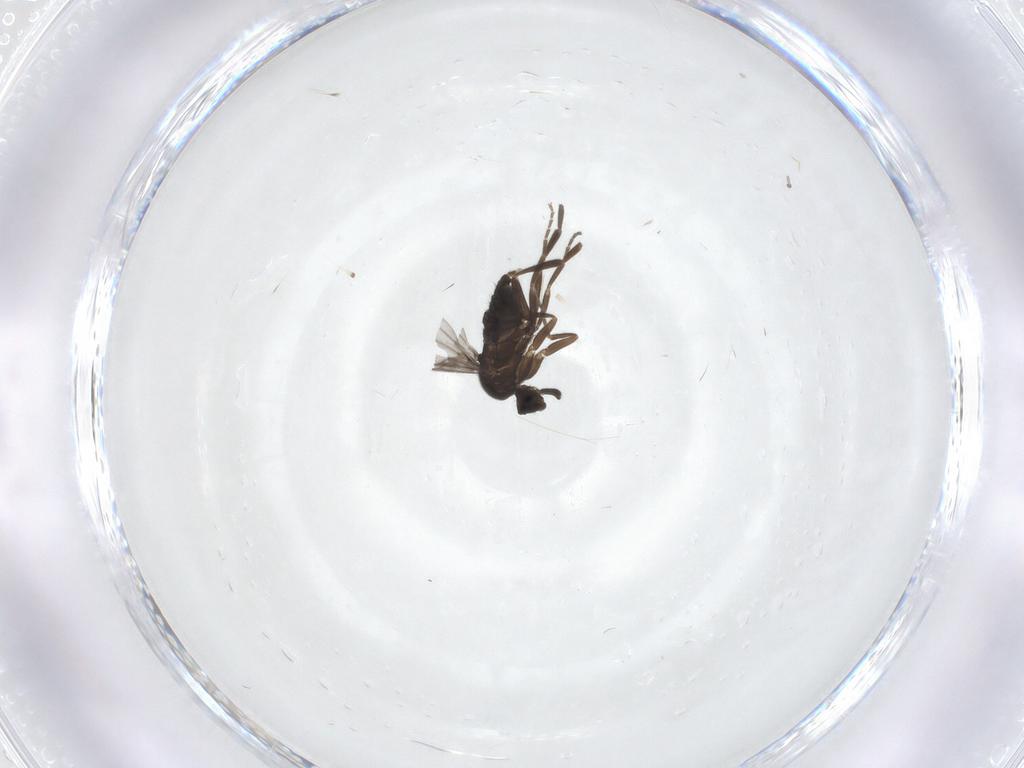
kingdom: Animalia
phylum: Arthropoda
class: Insecta
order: Diptera
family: Psychodidae
